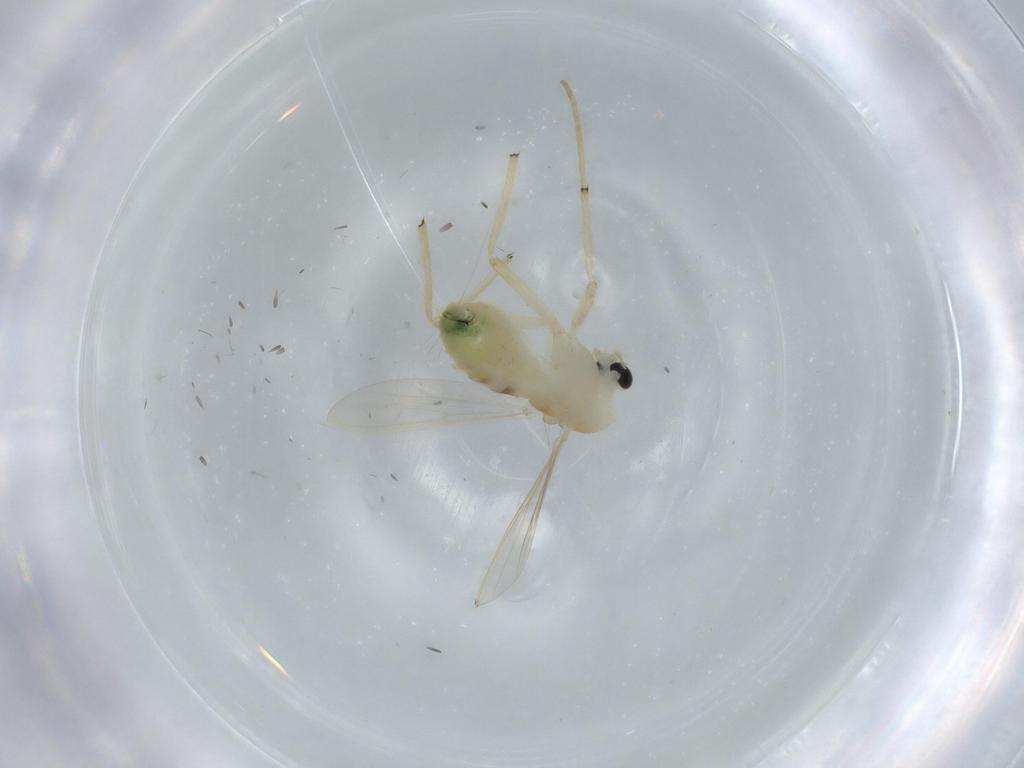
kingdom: Animalia
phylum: Arthropoda
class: Insecta
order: Diptera
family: Chironomidae
